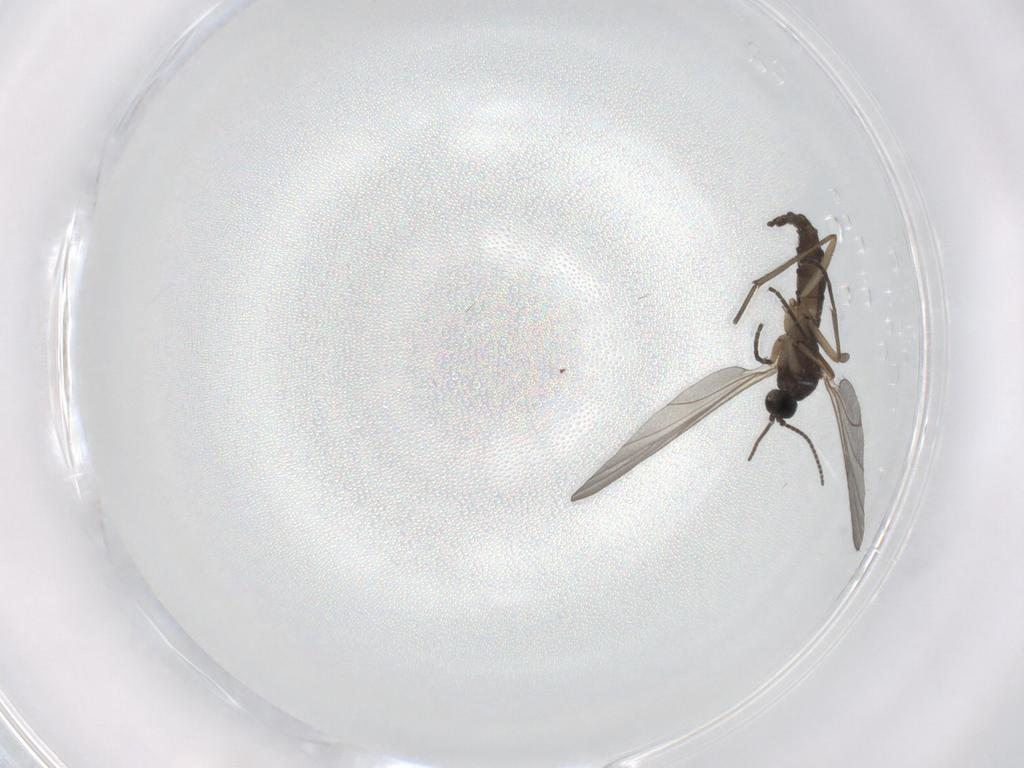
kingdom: Animalia
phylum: Arthropoda
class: Insecta
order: Diptera
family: Sciaridae
